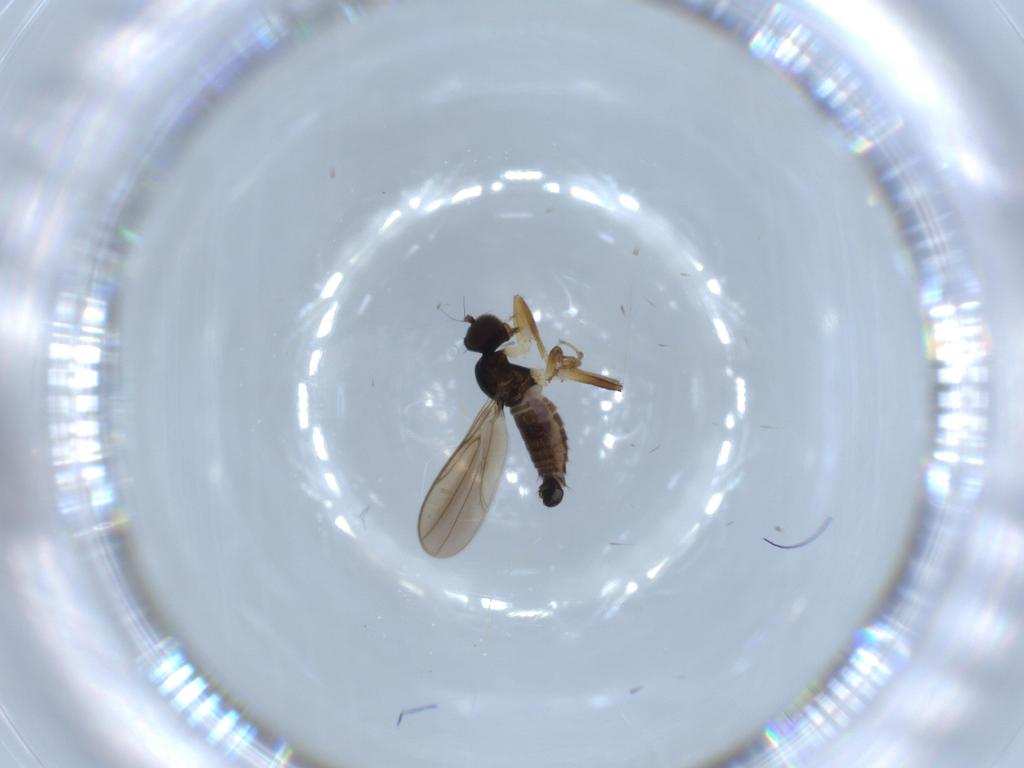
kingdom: Animalia
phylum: Arthropoda
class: Insecta
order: Diptera
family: Hybotidae
